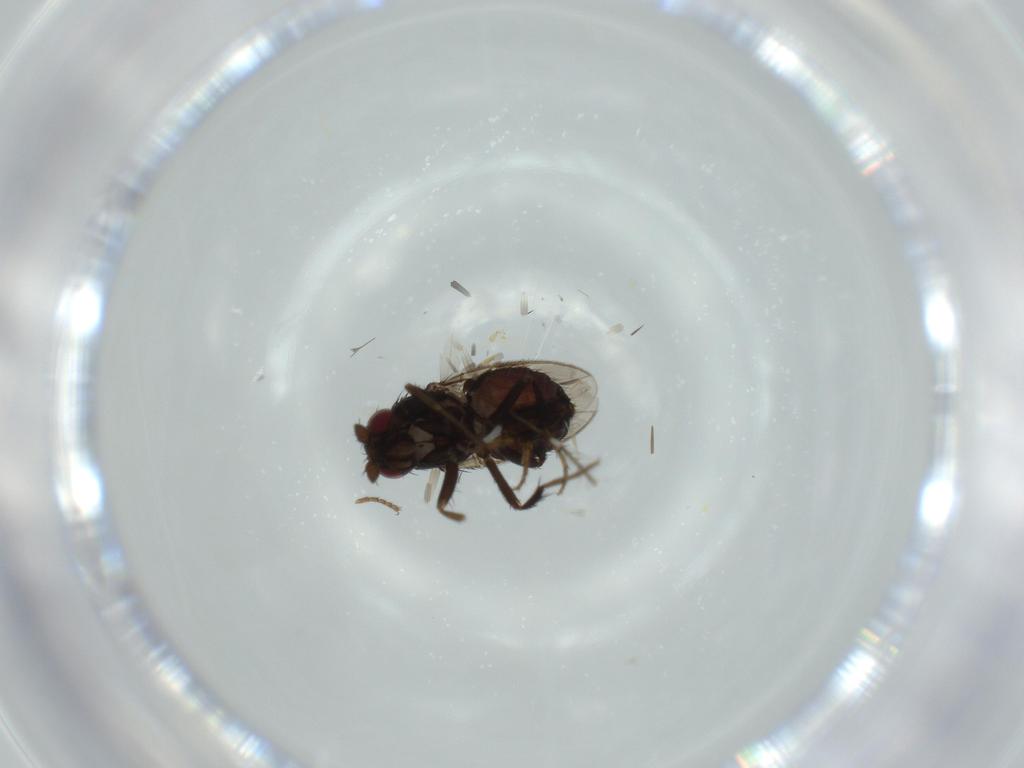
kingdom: Animalia
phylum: Arthropoda
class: Insecta
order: Diptera
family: Sphaeroceridae
